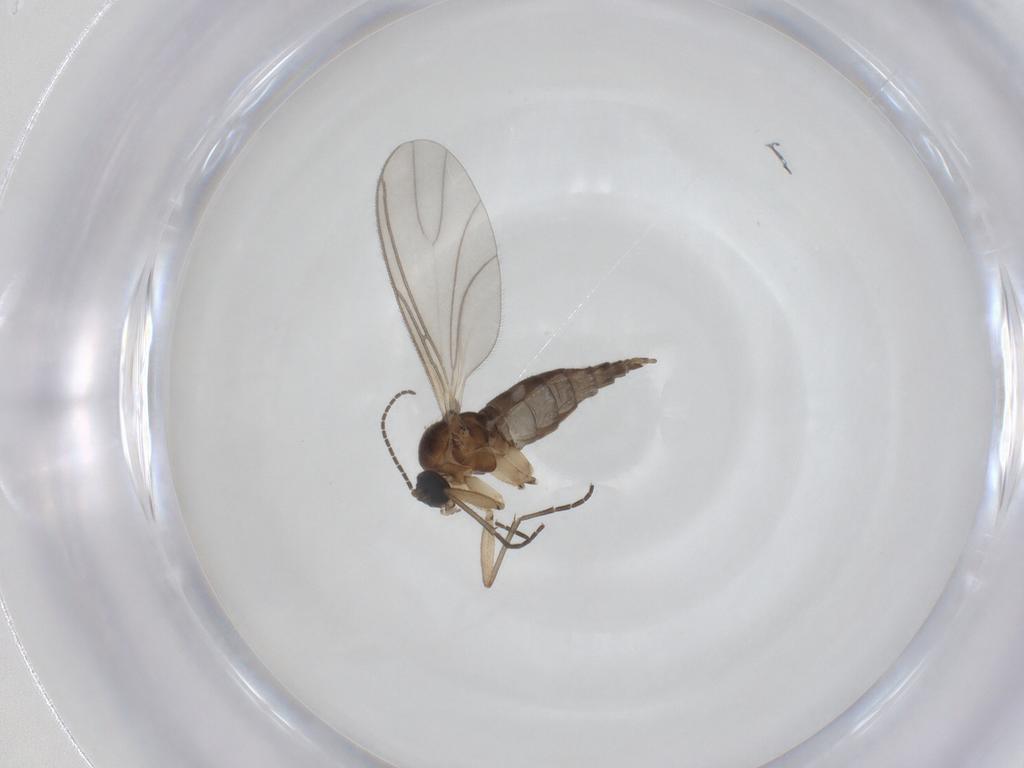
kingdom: Animalia
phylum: Arthropoda
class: Insecta
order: Diptera
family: Sciaridae
